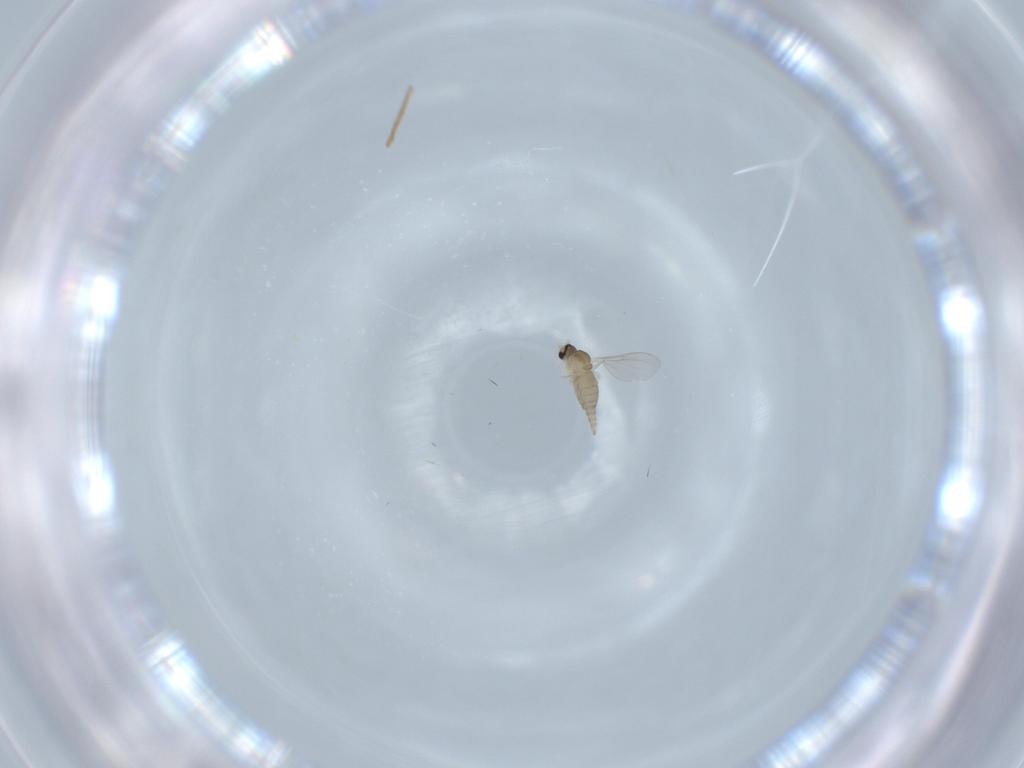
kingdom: Animalia
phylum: Arthropoda
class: Insecta
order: Diptera
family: Cecidomyiidae
